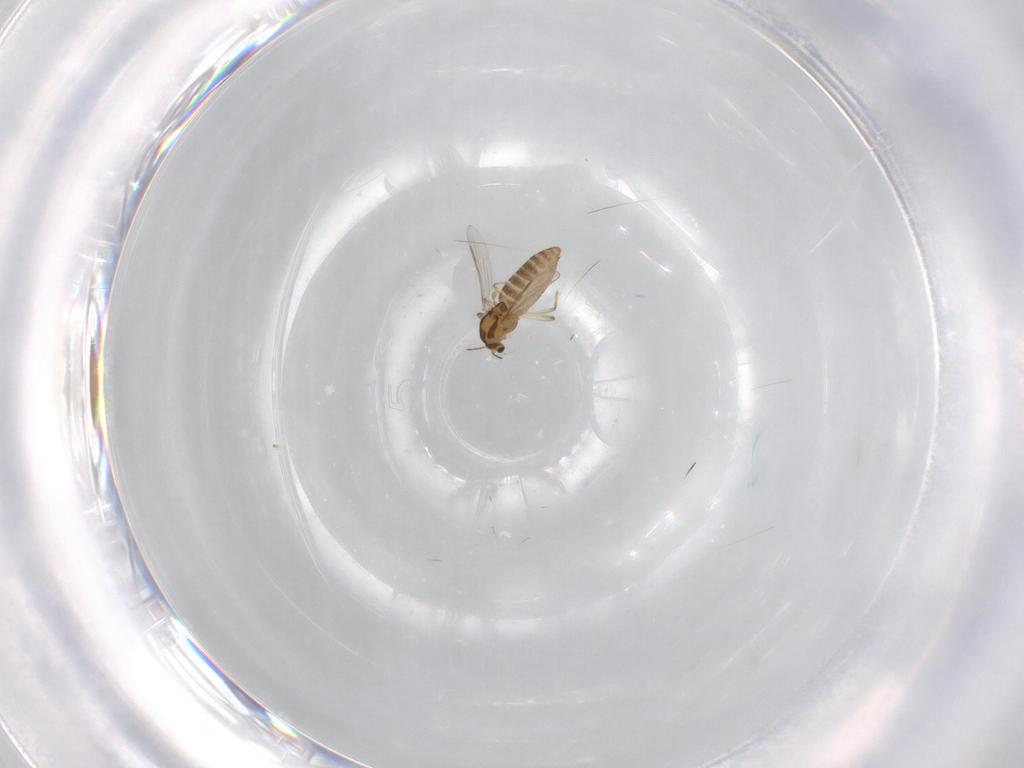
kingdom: Animalia
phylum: Arthropoda
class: Insecta
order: Diptera
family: Chironomidae
